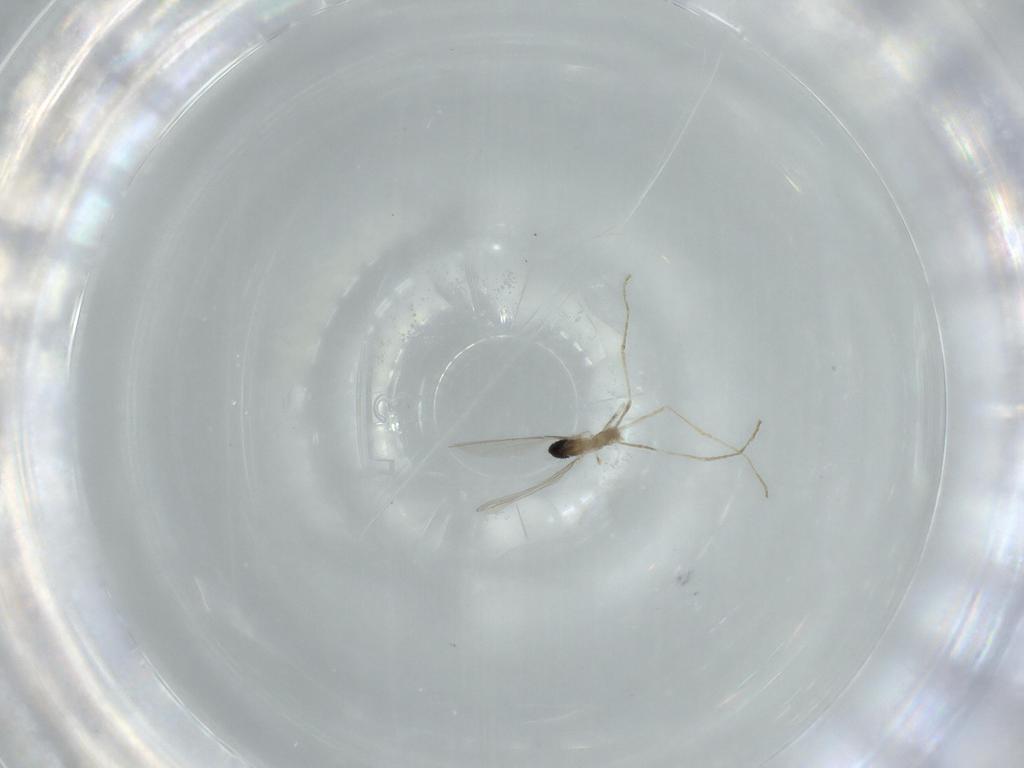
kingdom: Animalia
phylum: Arthropoda
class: Insecta
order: Diptera
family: Cecidomyiidae
